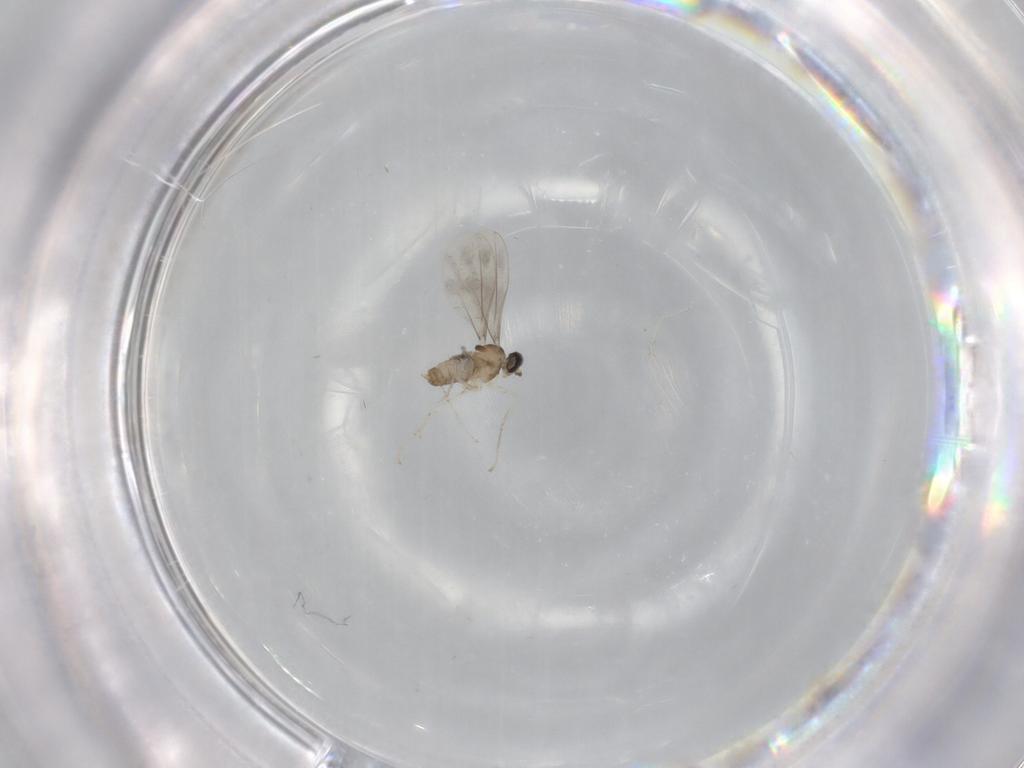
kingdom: Animalia
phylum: Arthropoda
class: Insecta
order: Diptera
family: Cecidomyiidae
